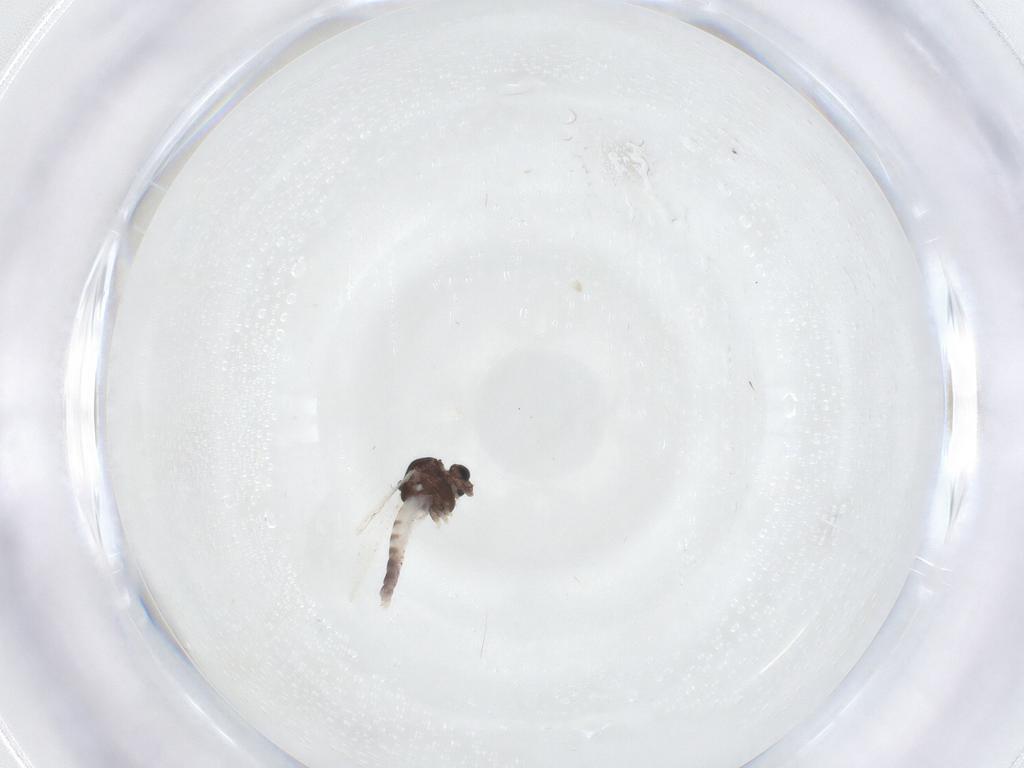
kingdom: Animalia
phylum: Arthropoda
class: Insecta
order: Diptera
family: Chironomidae
